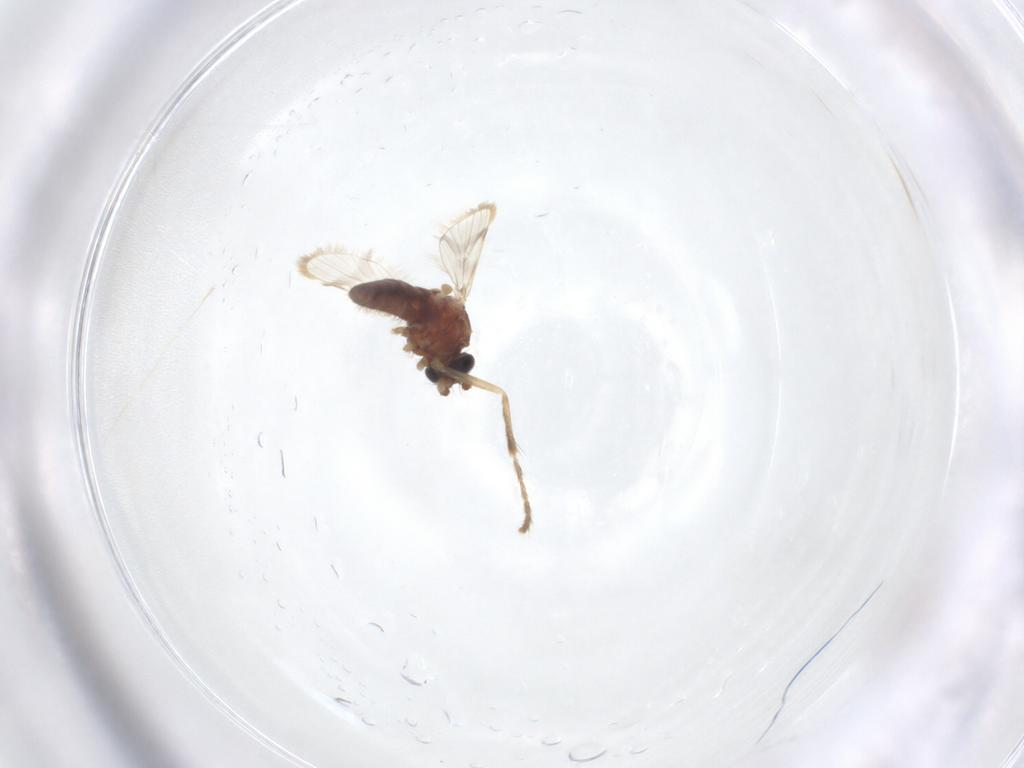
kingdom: Animalia
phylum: Arthropoda
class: Insecta
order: Diptera
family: Corethrellidae
